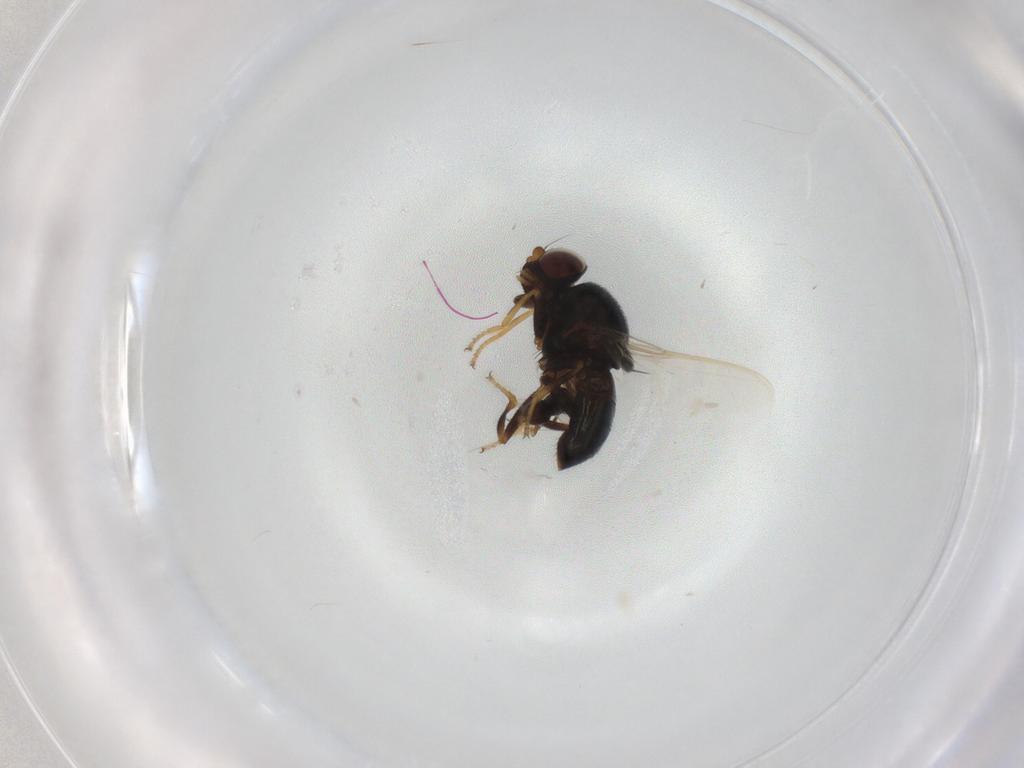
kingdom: Animalia
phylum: Arthropoda
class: Insecta
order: Diptera
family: Chloropidae
